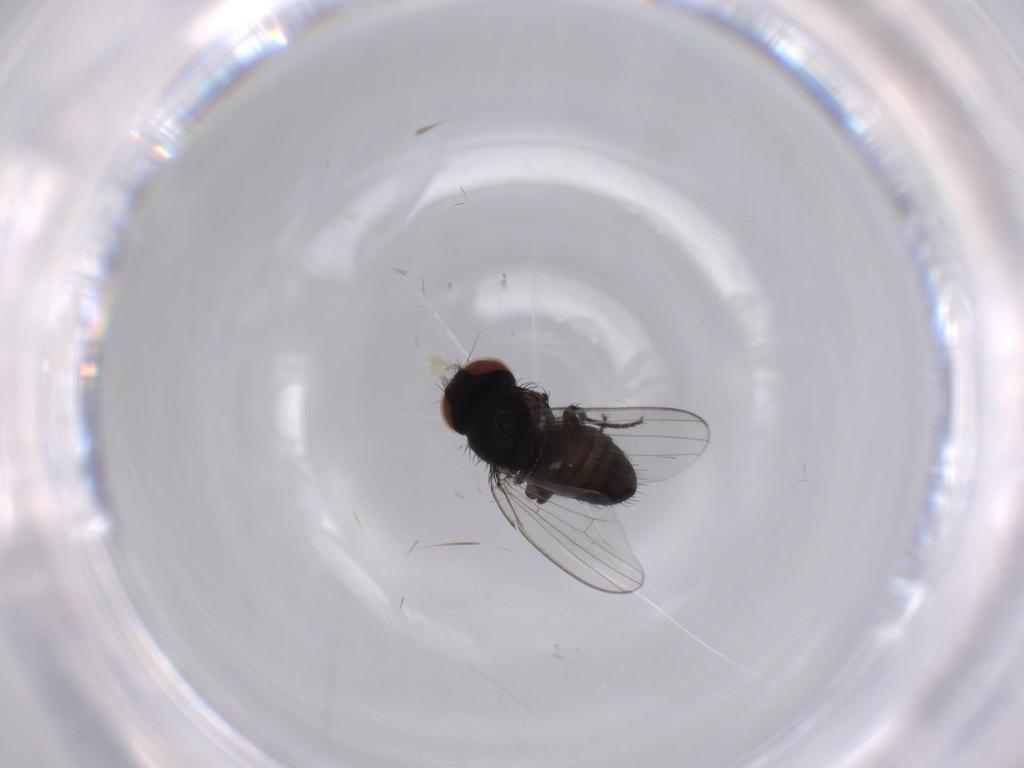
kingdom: Animalia
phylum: Arthropoda
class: Insecta
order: Diptera
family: Milichiidae
